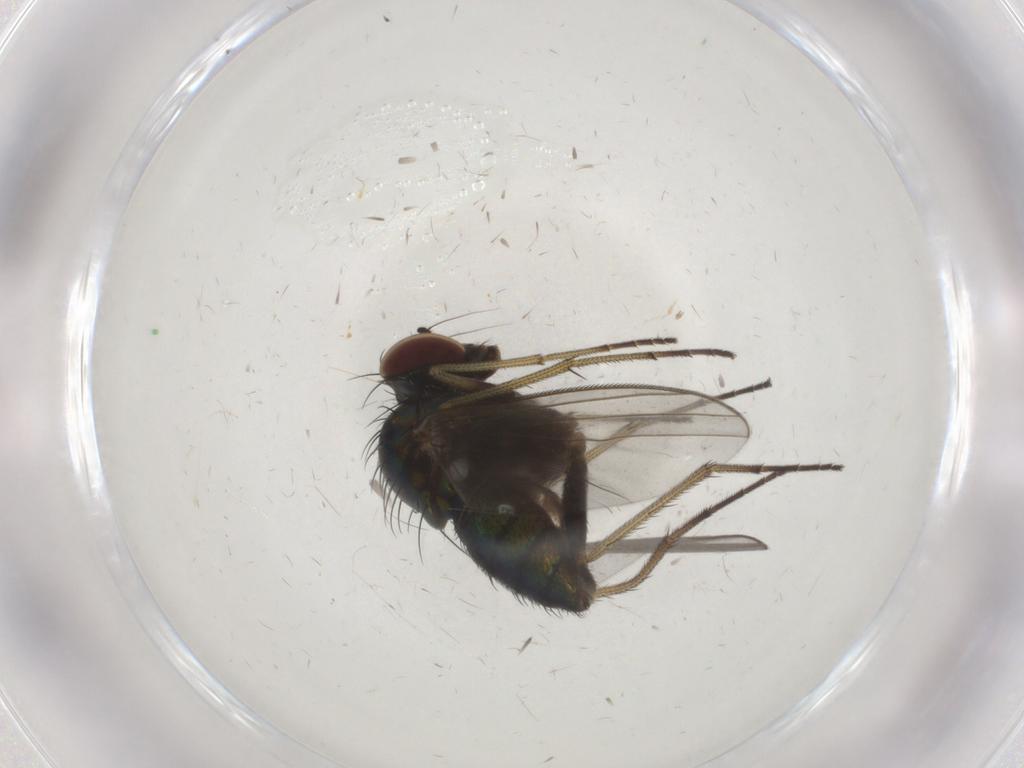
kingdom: Animalia
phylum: Arthropoda
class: Insecta
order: Diptera
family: Dolichopodidae
